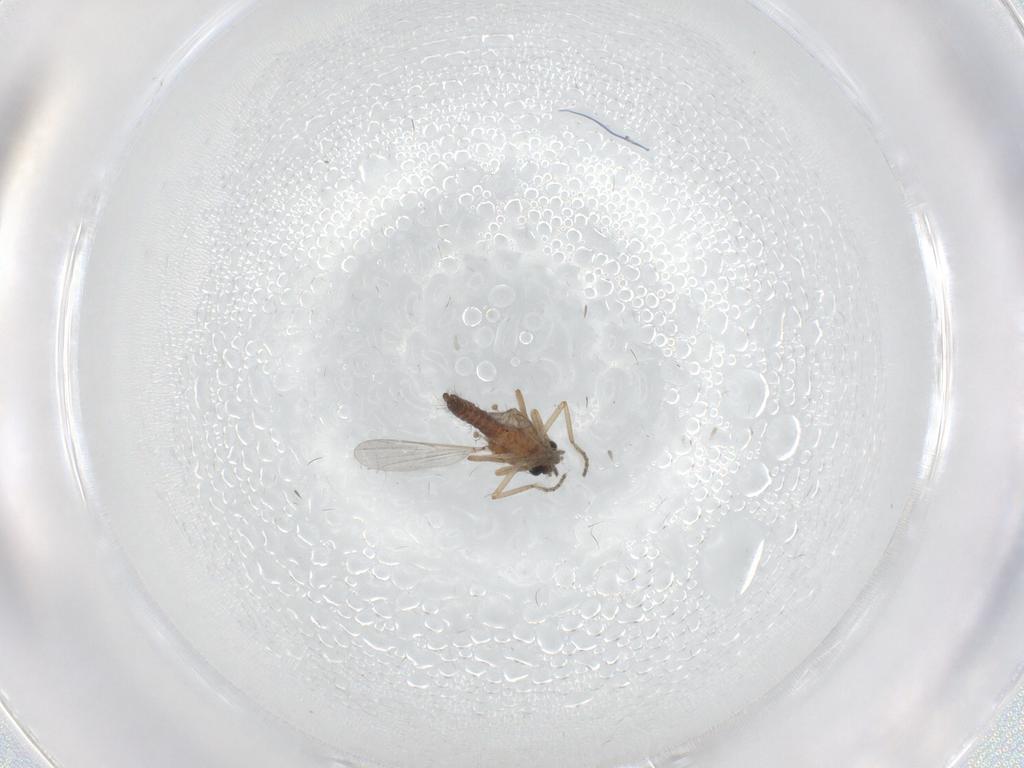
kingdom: Animalia
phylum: Arthropoda
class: Insecta
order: Diptera
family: Ceratopogonidae
